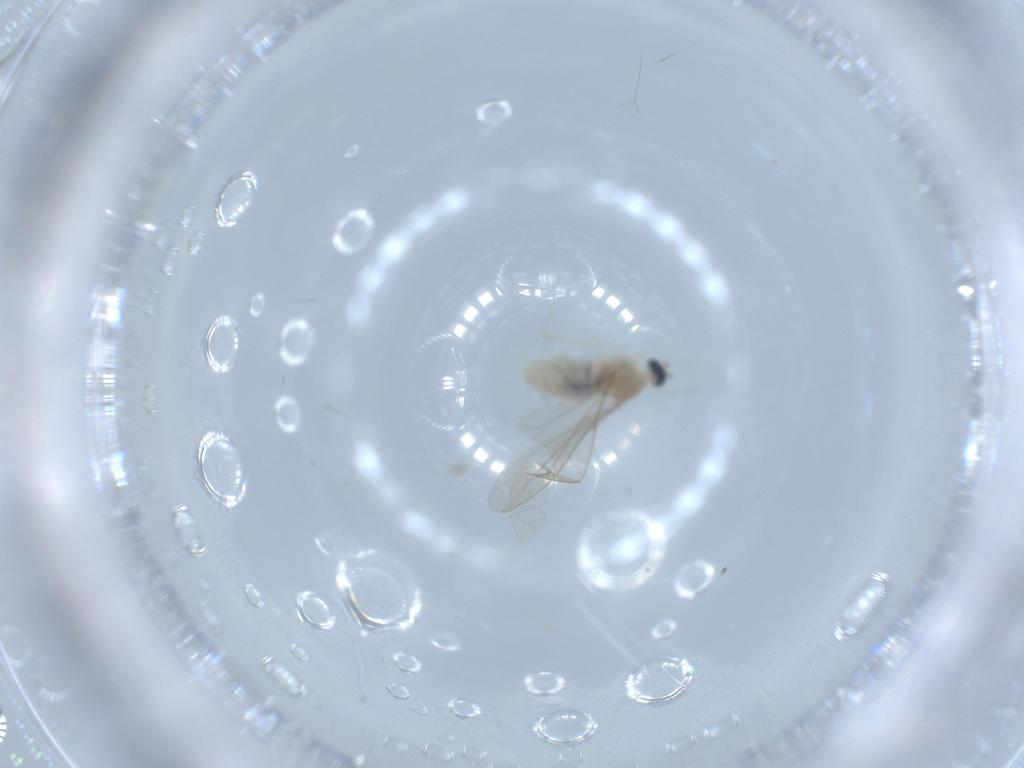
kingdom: Animalia
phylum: Arthropoda
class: Insecta
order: Diptera
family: Cecidomyiidae
